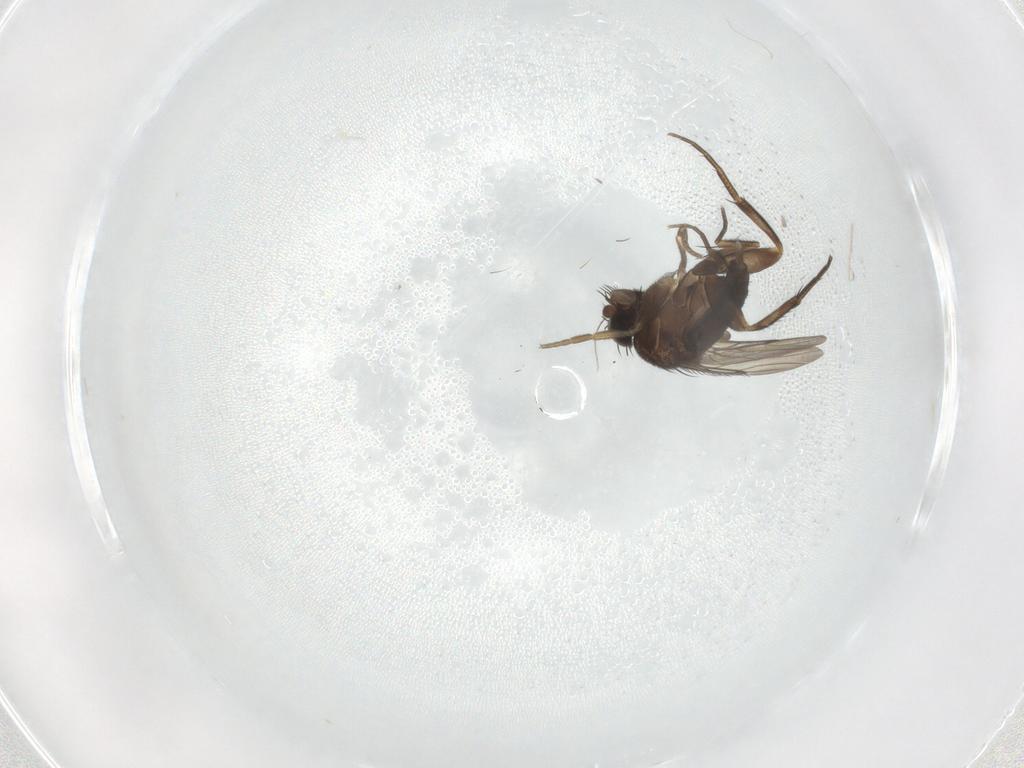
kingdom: Animalia
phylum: Arthropoda
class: Insecta
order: Diptera
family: Phoridae
